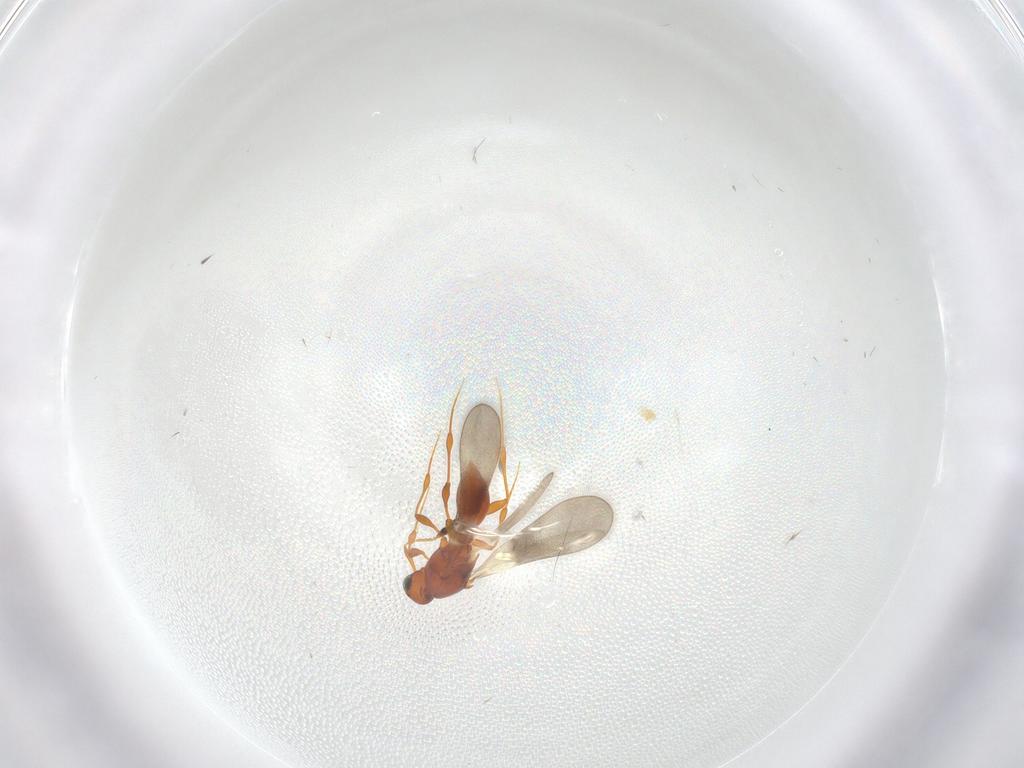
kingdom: Animalia
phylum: Arthropoda
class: Insecta
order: Hymenoptera
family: Platygastridae
